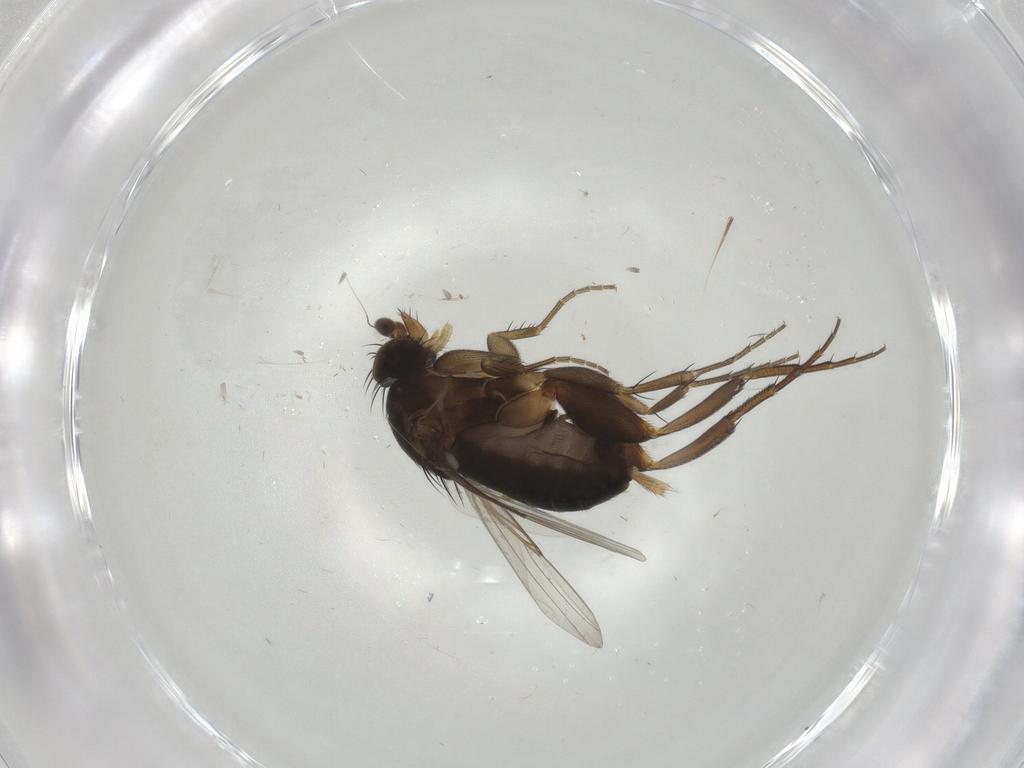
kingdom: Animalia
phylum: Arthropoda
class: Insecta
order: Diptera
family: Phoridae
